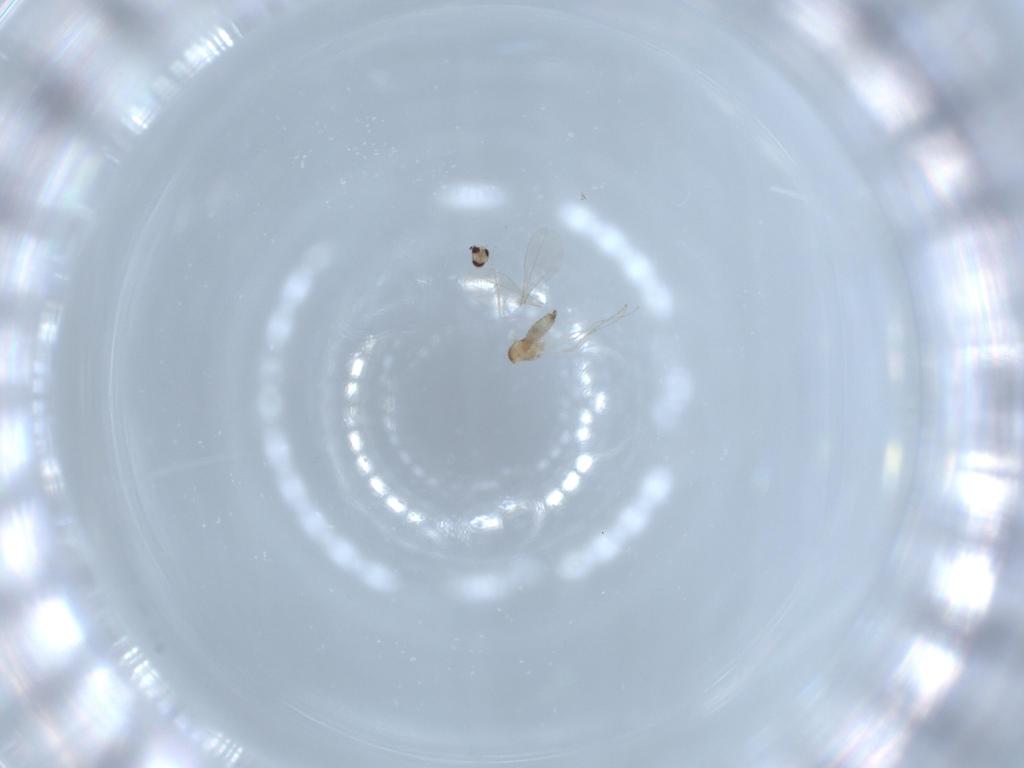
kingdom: Animalia
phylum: Arthropoda
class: Insecta
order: Diptera
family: Cecidomyiidae
